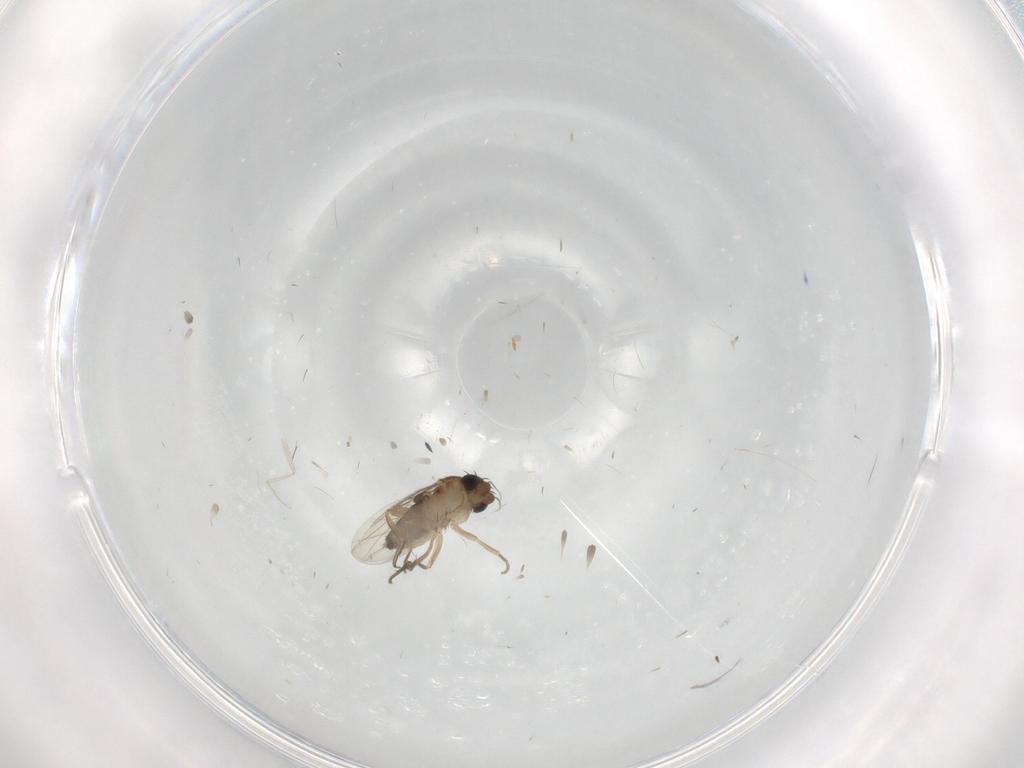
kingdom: Animalia
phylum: Arthropoda
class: Insecta
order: Diptera
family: Cecidomyiidae
